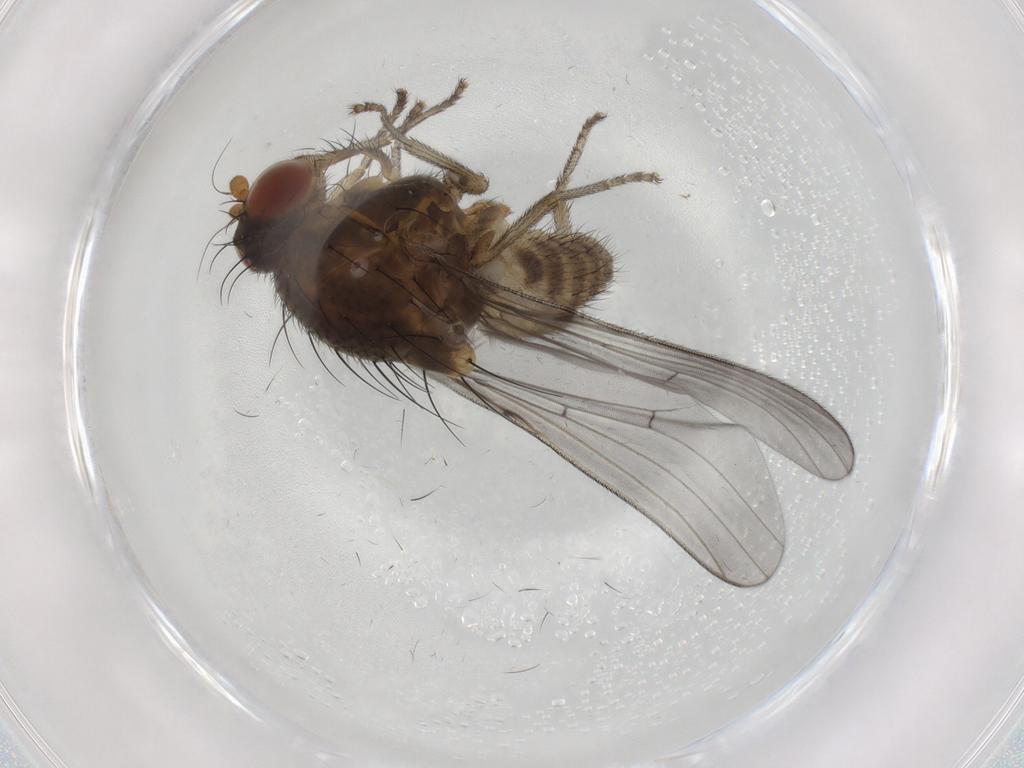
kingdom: Animalia
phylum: Arthropoda
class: Insecta
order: Diptera
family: Lauxaniidae
